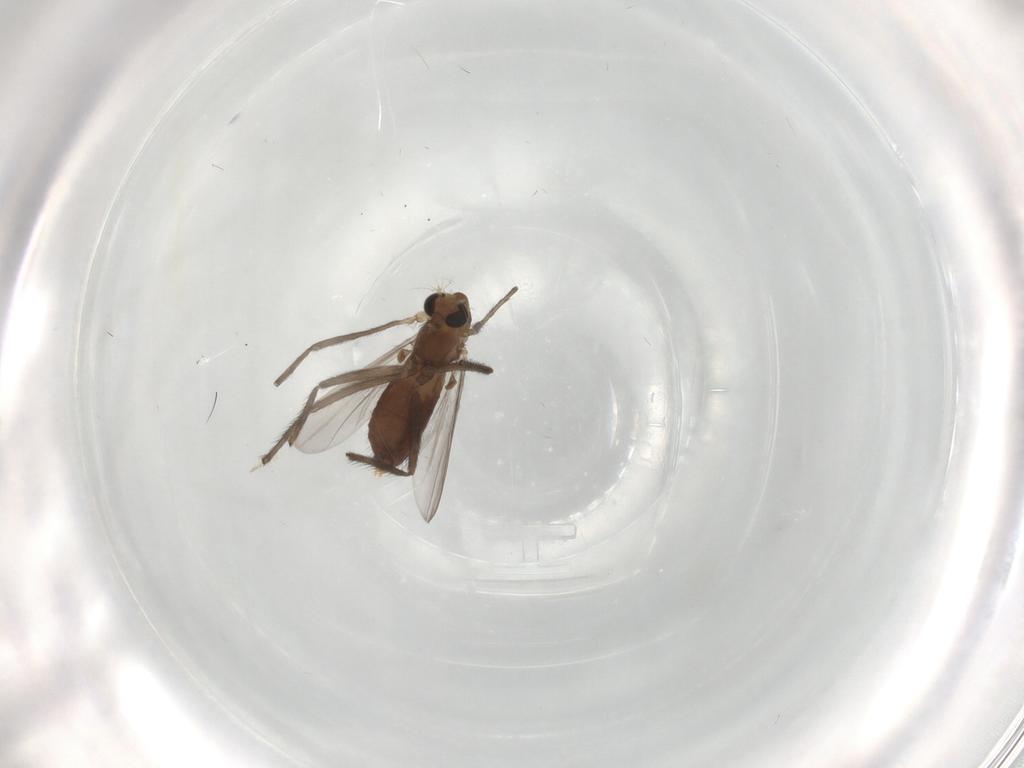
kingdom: Animalia
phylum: Arthropoda
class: Insecta
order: Diptera
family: Chironomidae
